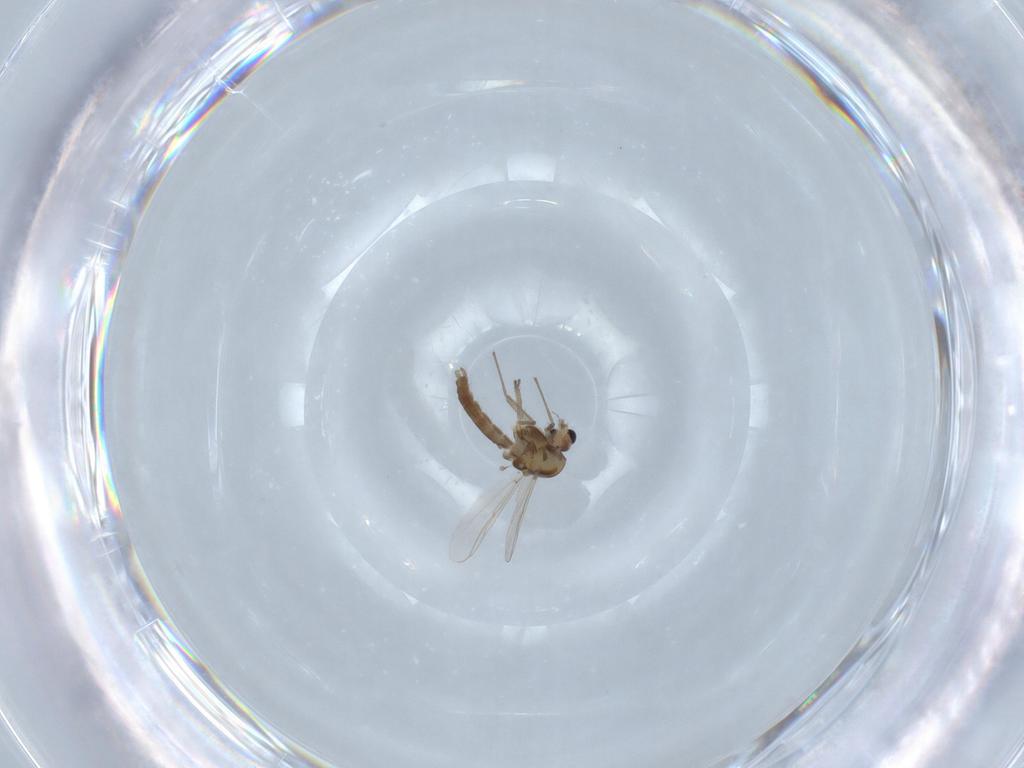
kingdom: Animalia
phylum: Arthropoda
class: Insecta
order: Diptera
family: Chironomidae
